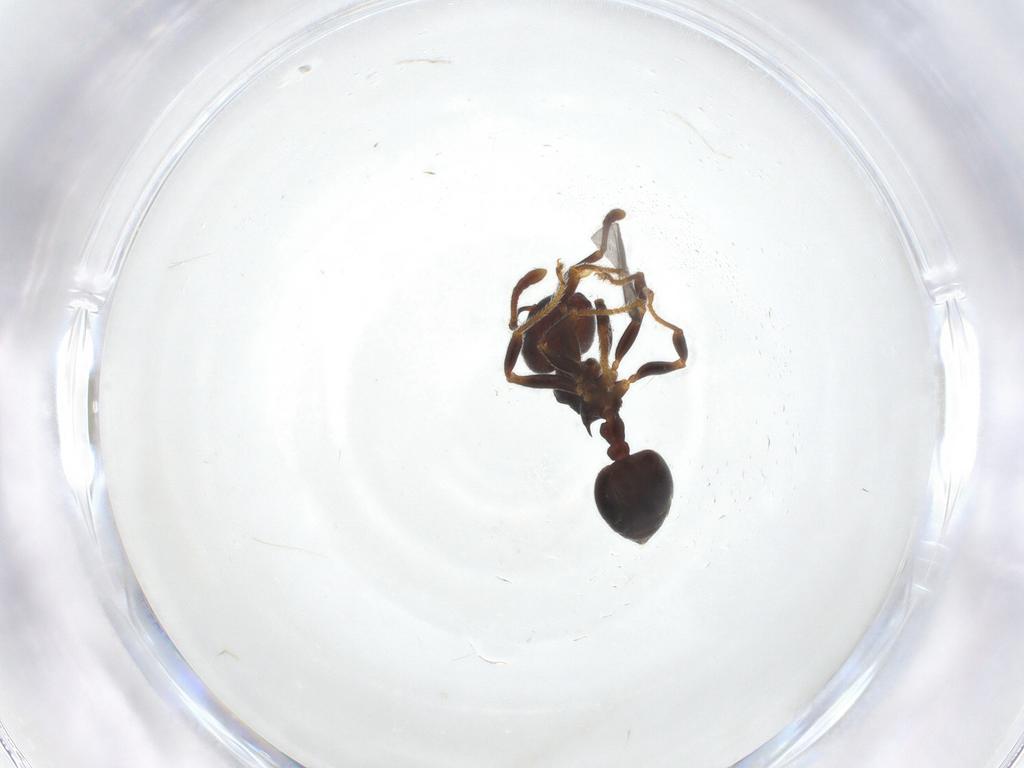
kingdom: Animalia
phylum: Arthropoda
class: Insecta
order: Hymenoptera
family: Formicidae
